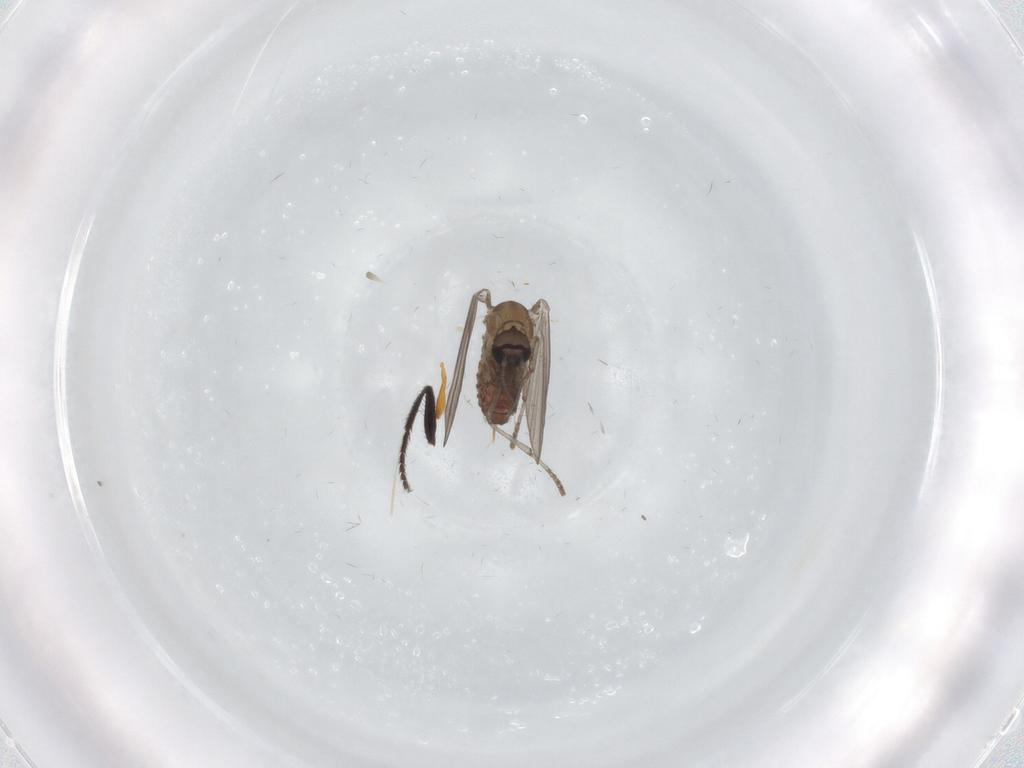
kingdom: Animalia
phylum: Arthropoda
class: Insecta
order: Diptera
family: Psychodidae
